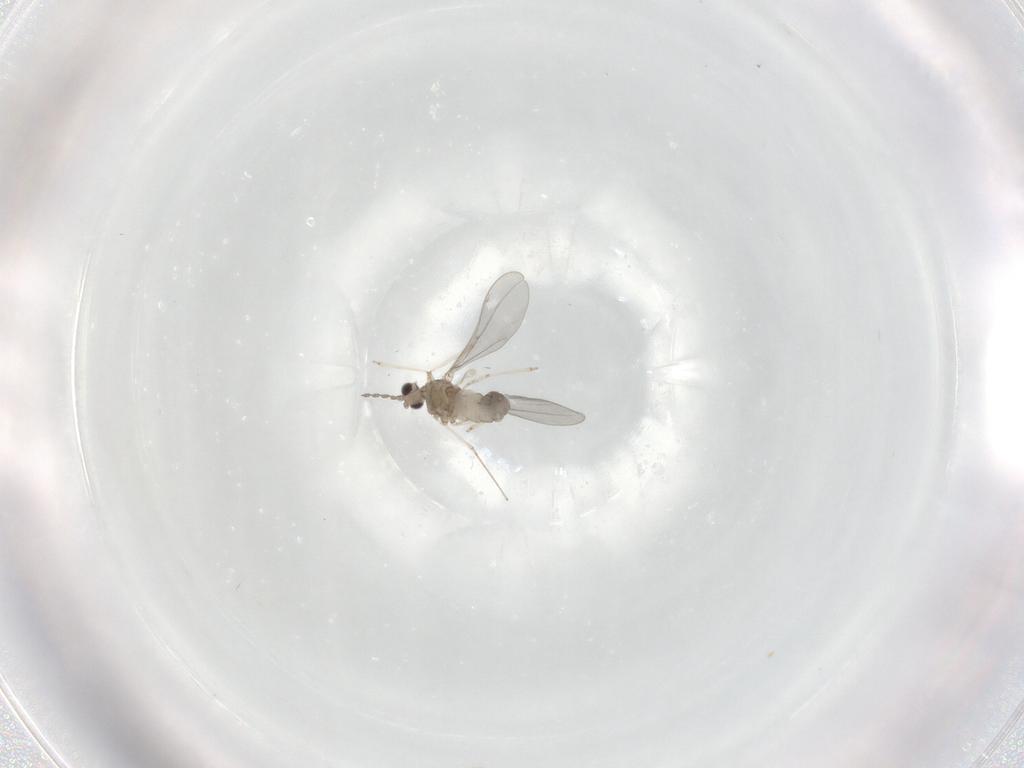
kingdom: Animalia
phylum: Arthropoda
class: Insecta
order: Diptera
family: Cecidomyiidae
